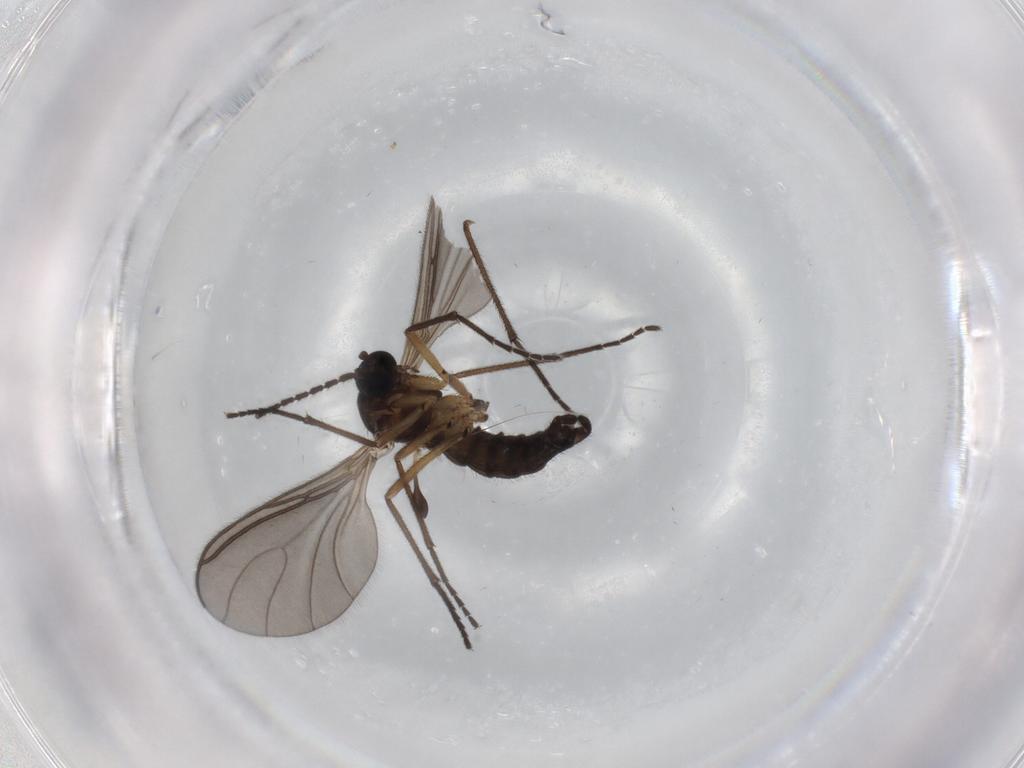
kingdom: Animalia
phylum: Arthropoda
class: Insecta
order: Diptera
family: Sciaridae
